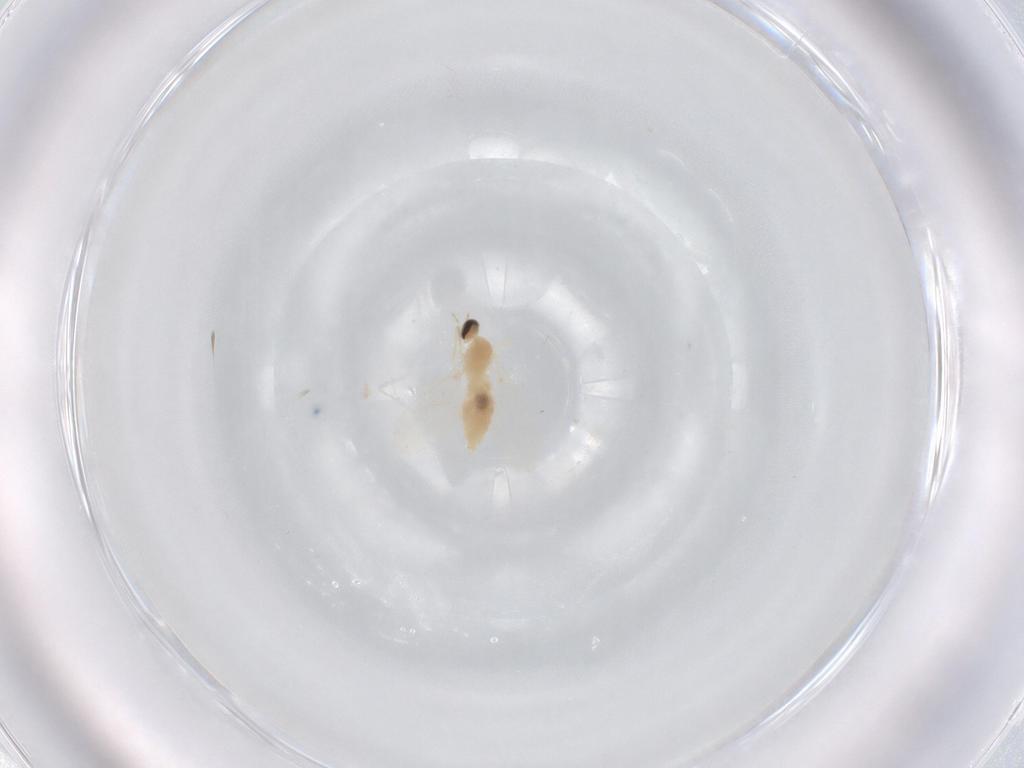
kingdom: Animalia
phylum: Arthropoda
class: Insecta
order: Diptera
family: Cecidomyiidae
